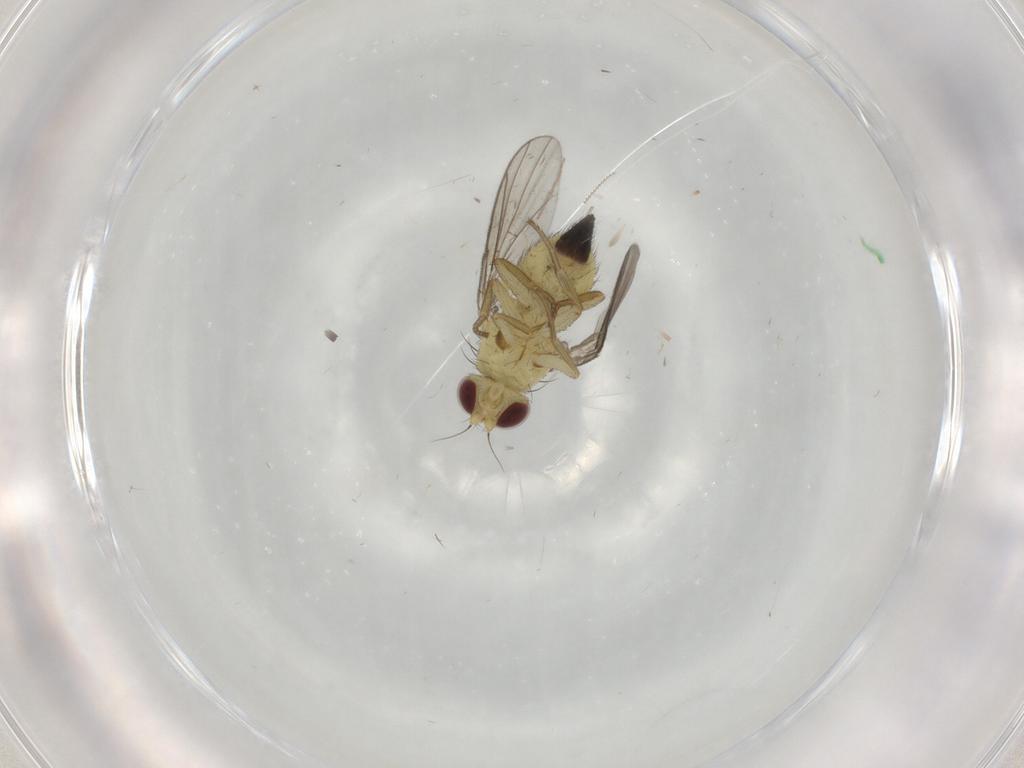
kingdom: Animalia
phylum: Arthropoda
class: Insecta
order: Diptera
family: Agromyzidae
